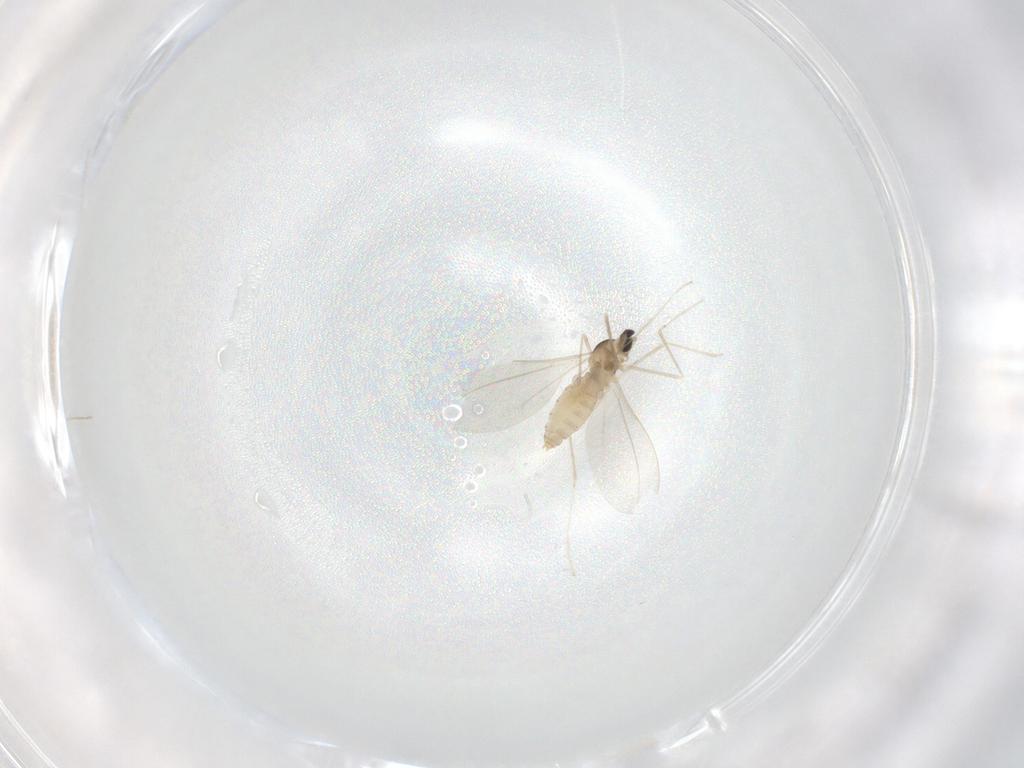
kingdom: Animalia
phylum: Arthropoda
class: Insecta
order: Diptera
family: Cecidomyiidae
